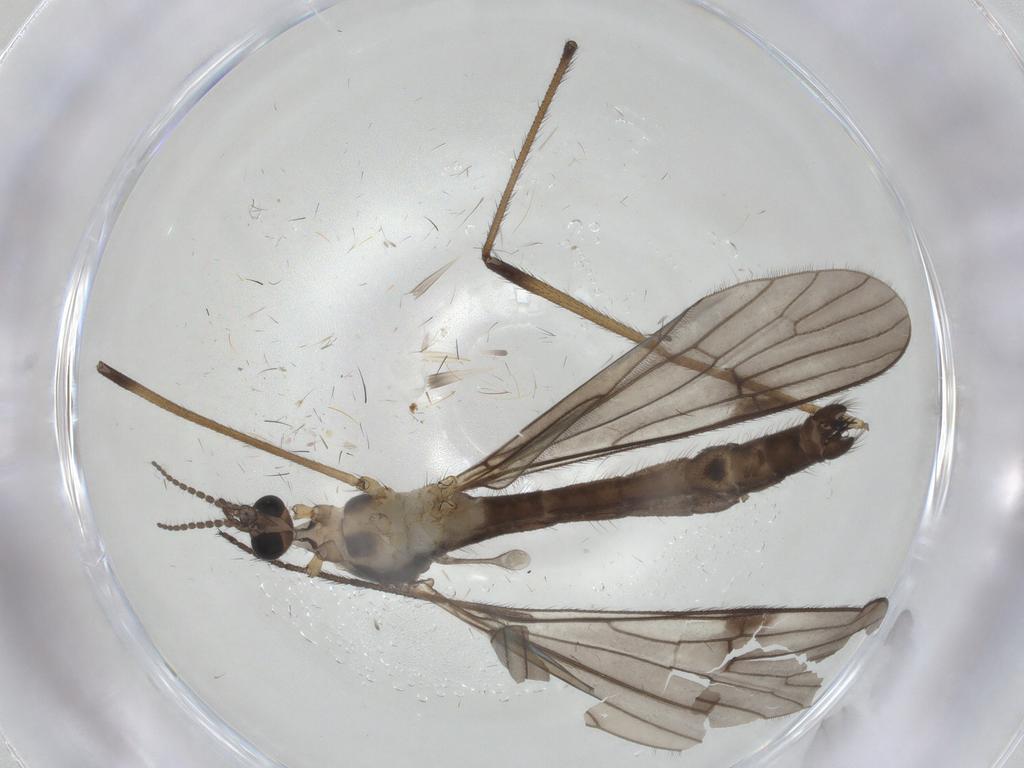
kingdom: Animalia
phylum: Arthropoda
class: Insecta
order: Diptera
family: Limoniidae
